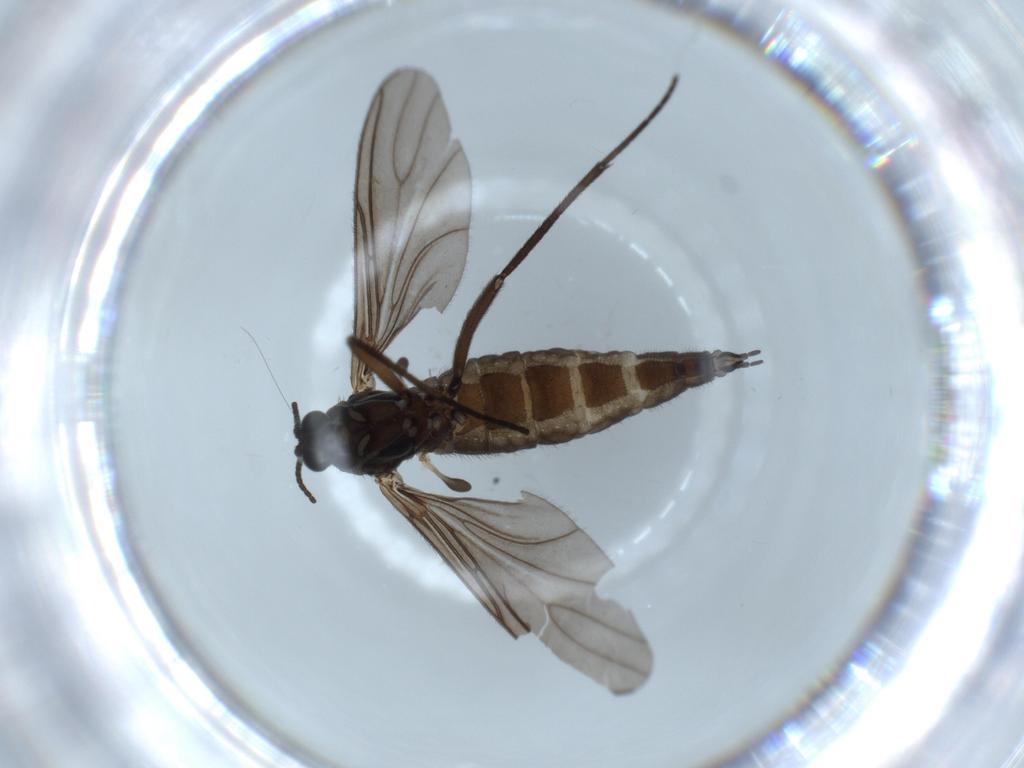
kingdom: Animalia
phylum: Arthropoda
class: Insecta
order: Diptera
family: Sciaridae
